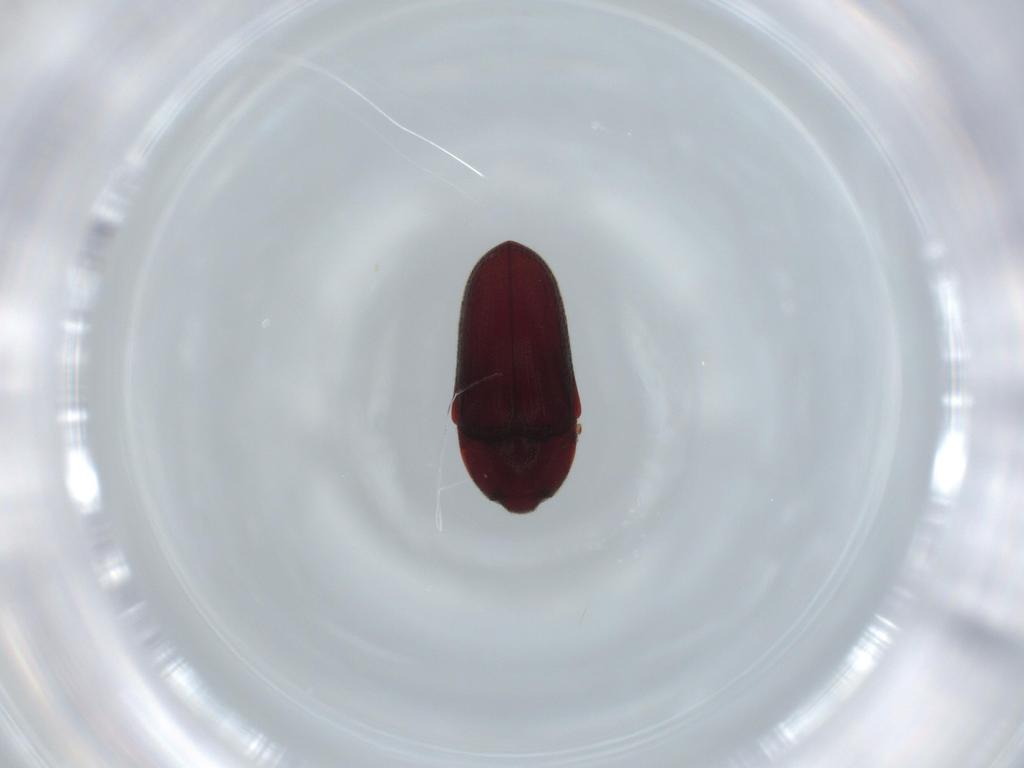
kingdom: Animalia
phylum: Arthropoda
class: Insecta
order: Coleoptera
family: Throscidae
